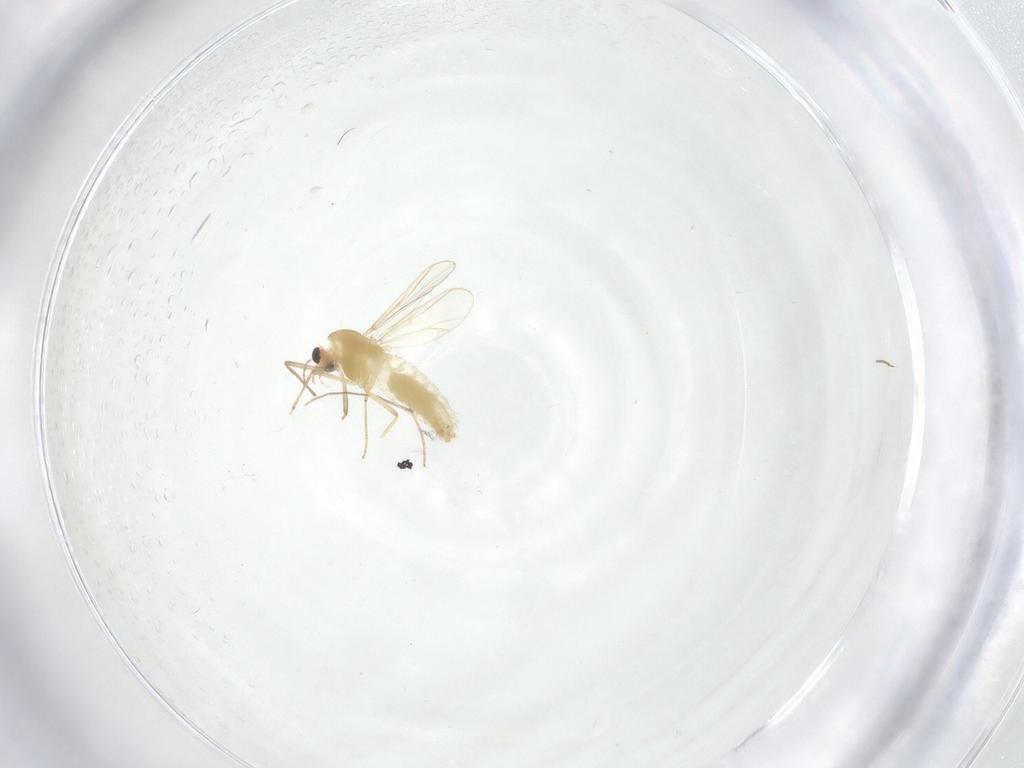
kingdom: Animalia
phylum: Arthropoda
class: Insecta
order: Diptera
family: Chironomidae
